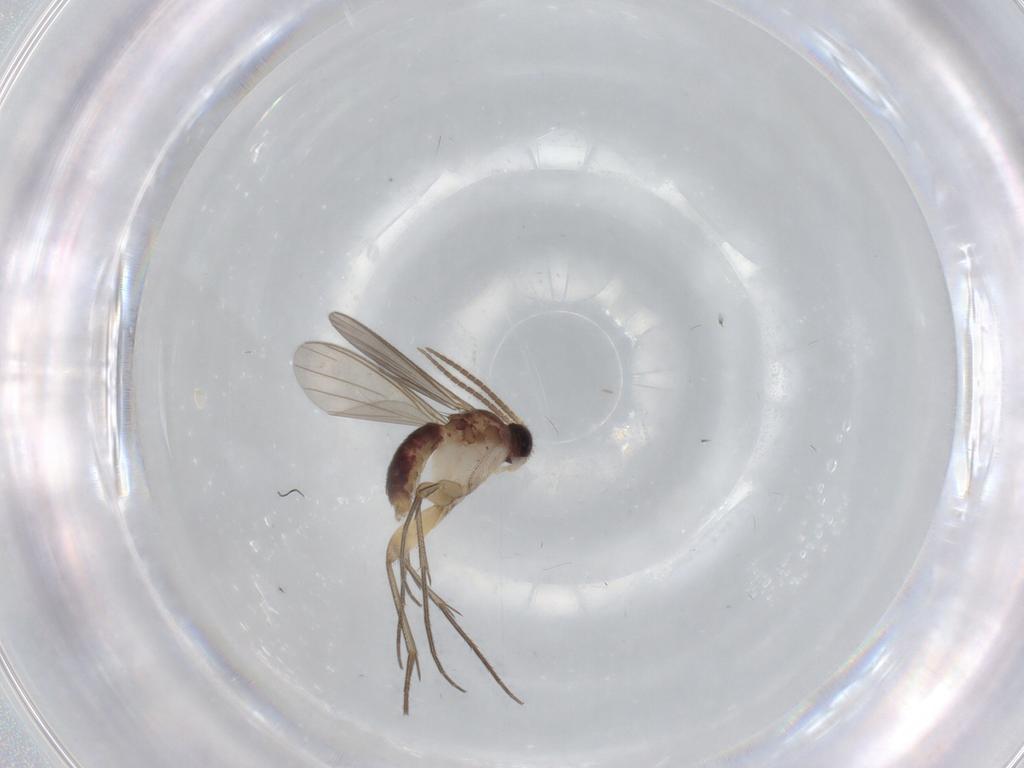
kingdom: Animalia
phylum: Arthropoda
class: Insecta
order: Diptera
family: Mycetophilidae
